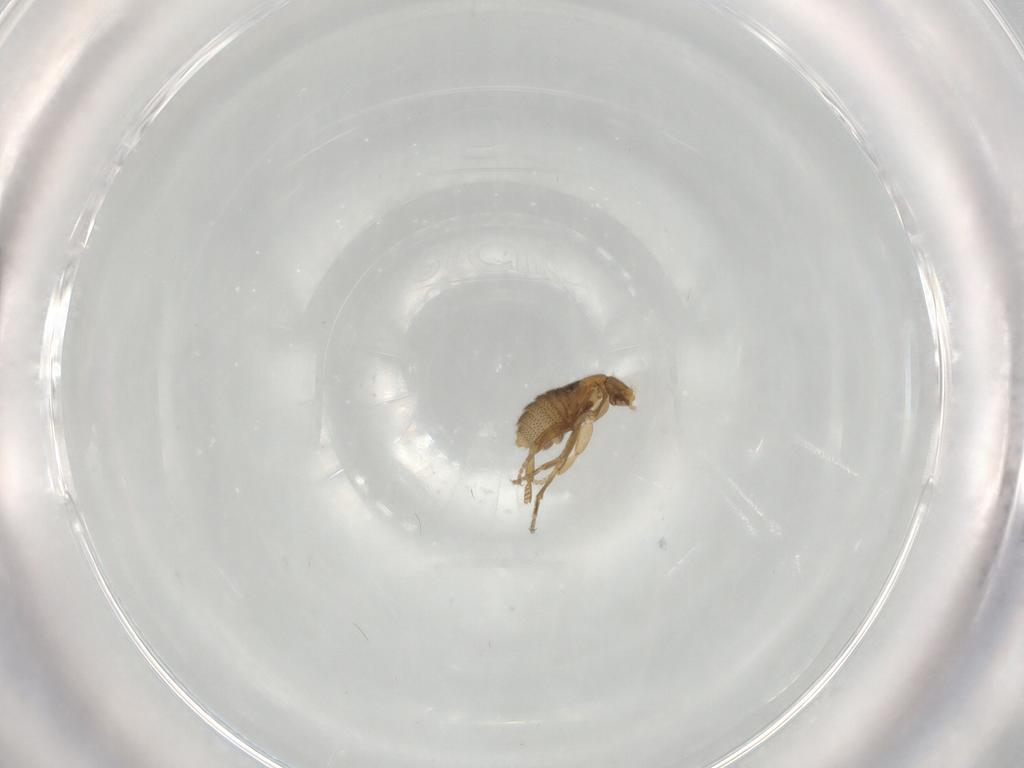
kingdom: Animalia
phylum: Arthropoda
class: Insecta
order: Diptera
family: Phoridae
